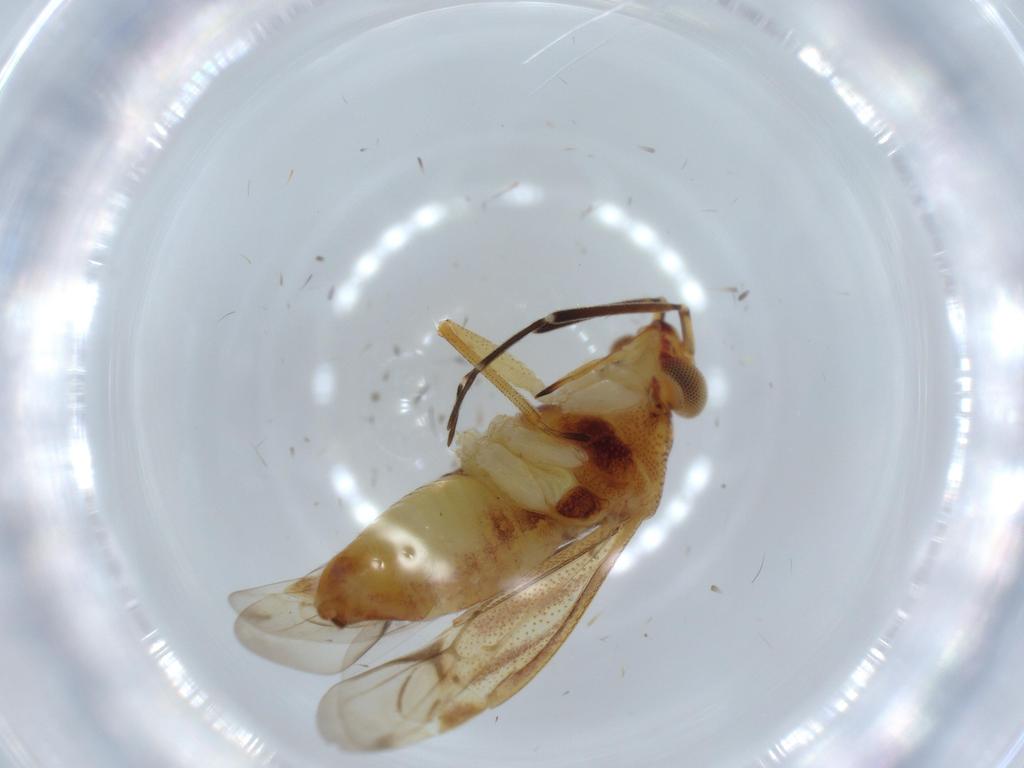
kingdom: Animalia
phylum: Arthropoda
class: Insecta
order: Hemiptera
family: Miridae
